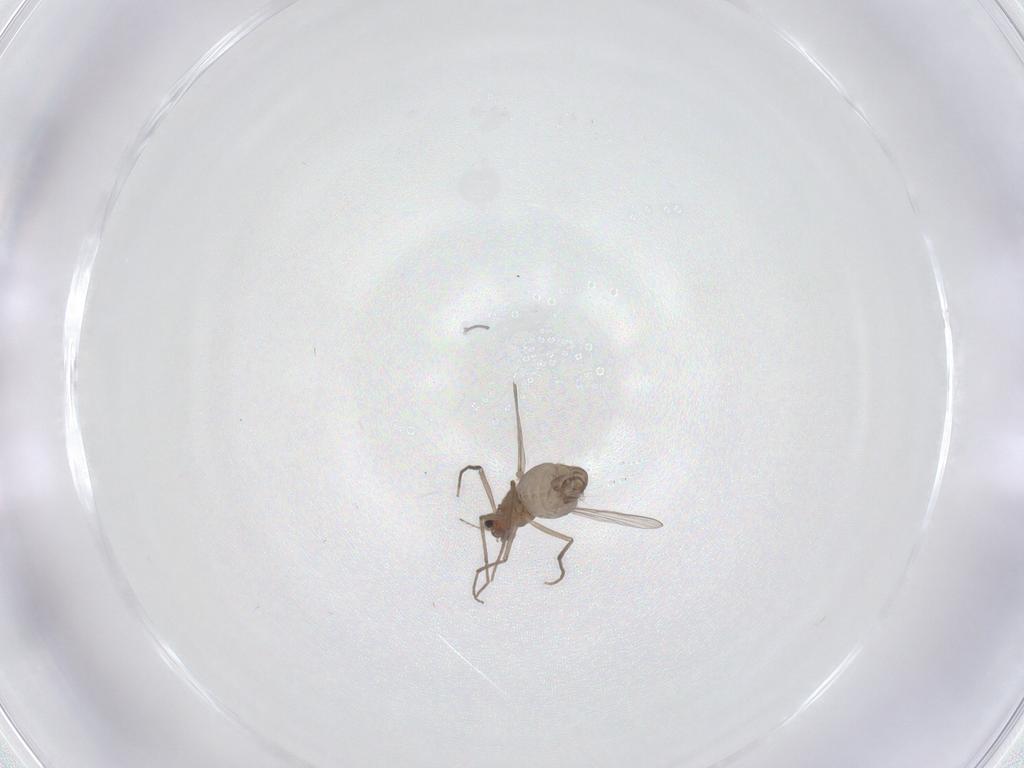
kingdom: Animalia
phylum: Arthropoda
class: Insecta
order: Diptera
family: Chironomidae
